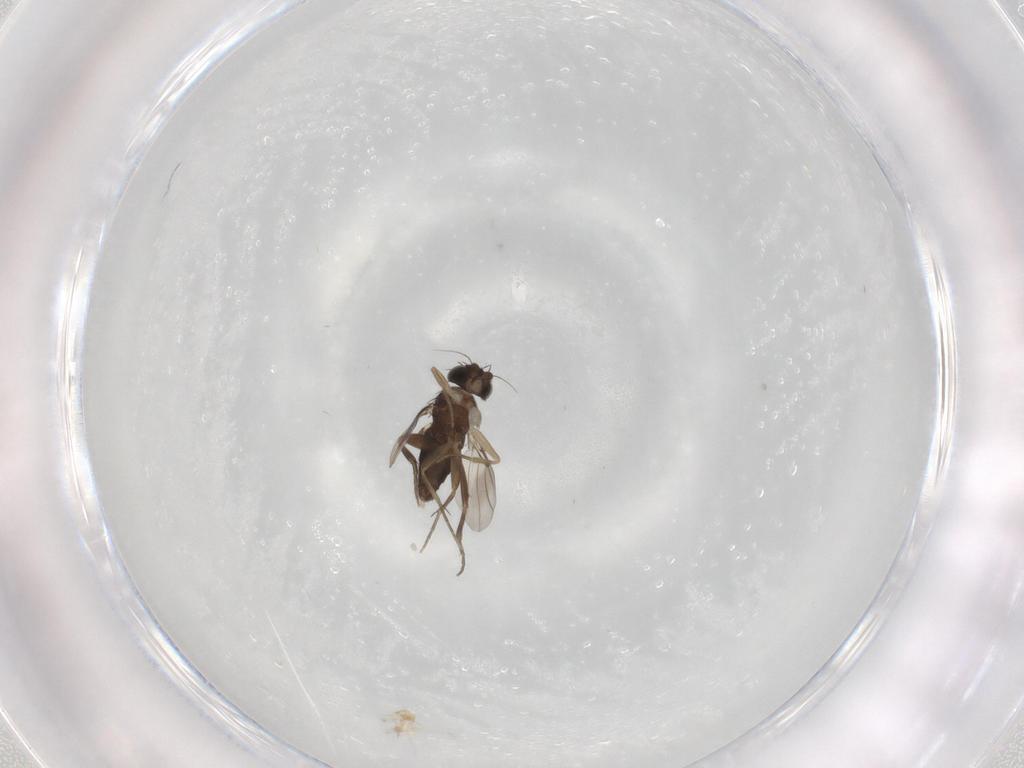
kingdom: Animalia
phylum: Arthropoda
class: Insecta
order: Diptera
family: Phoridae
